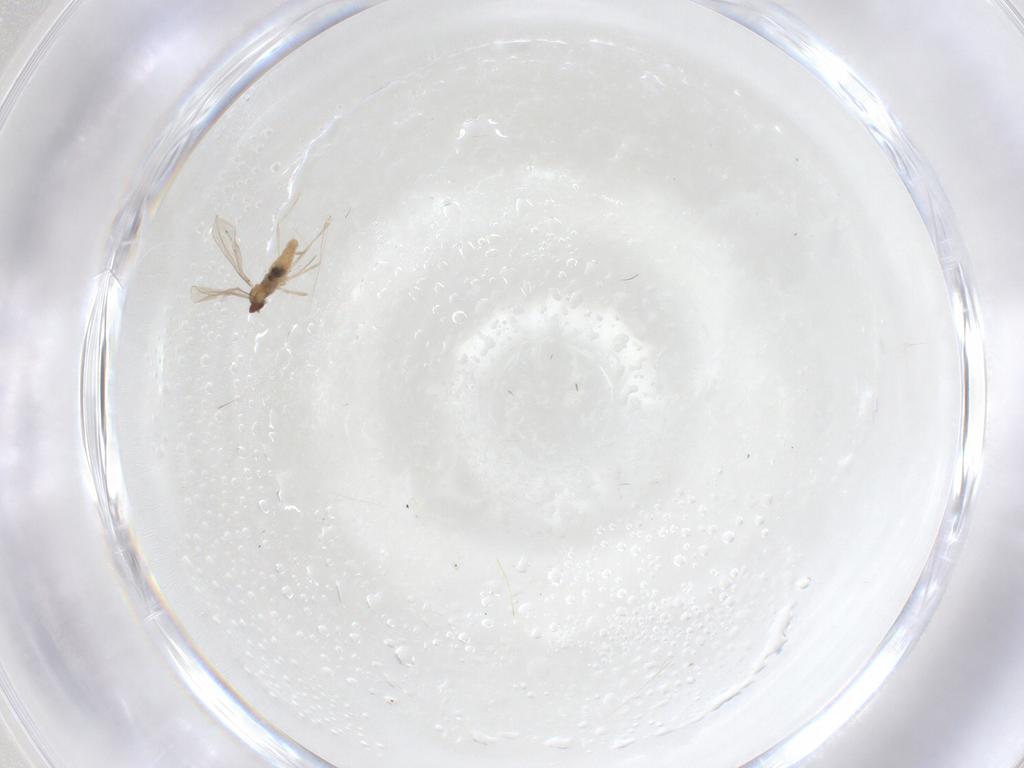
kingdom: Animalia
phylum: Arthropoda
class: Insecta
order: Diptera
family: Cecidomyiidae
